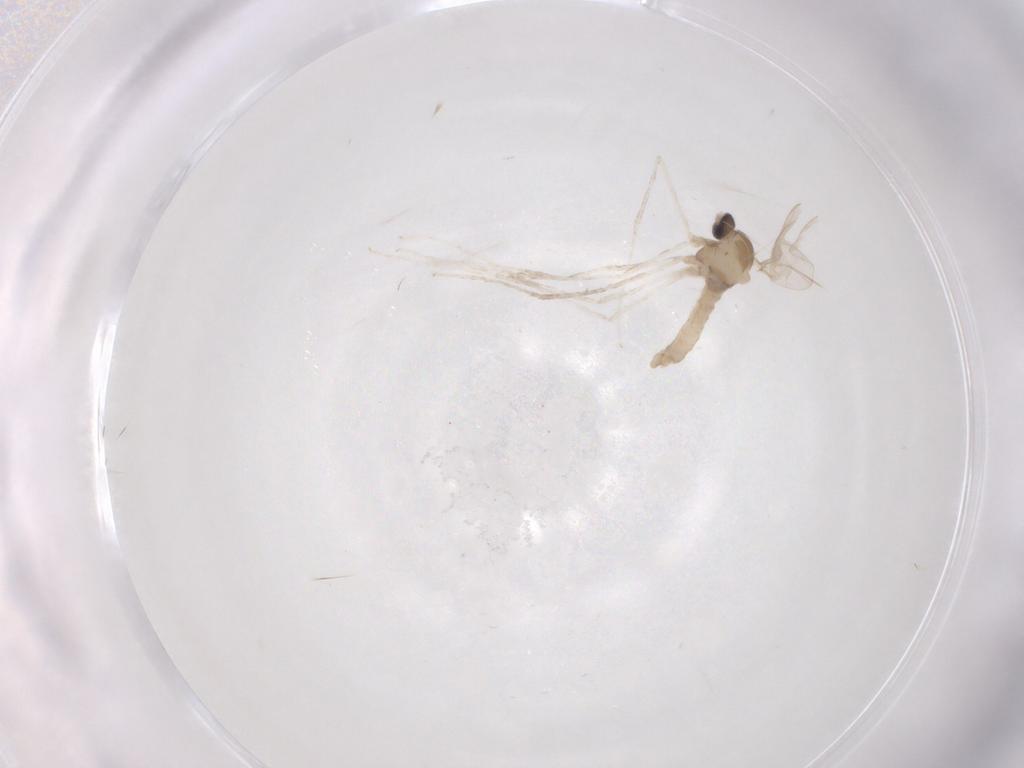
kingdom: Animalia
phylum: Arthropoda
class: Insecta
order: Diptera
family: Cecidomyiidae
